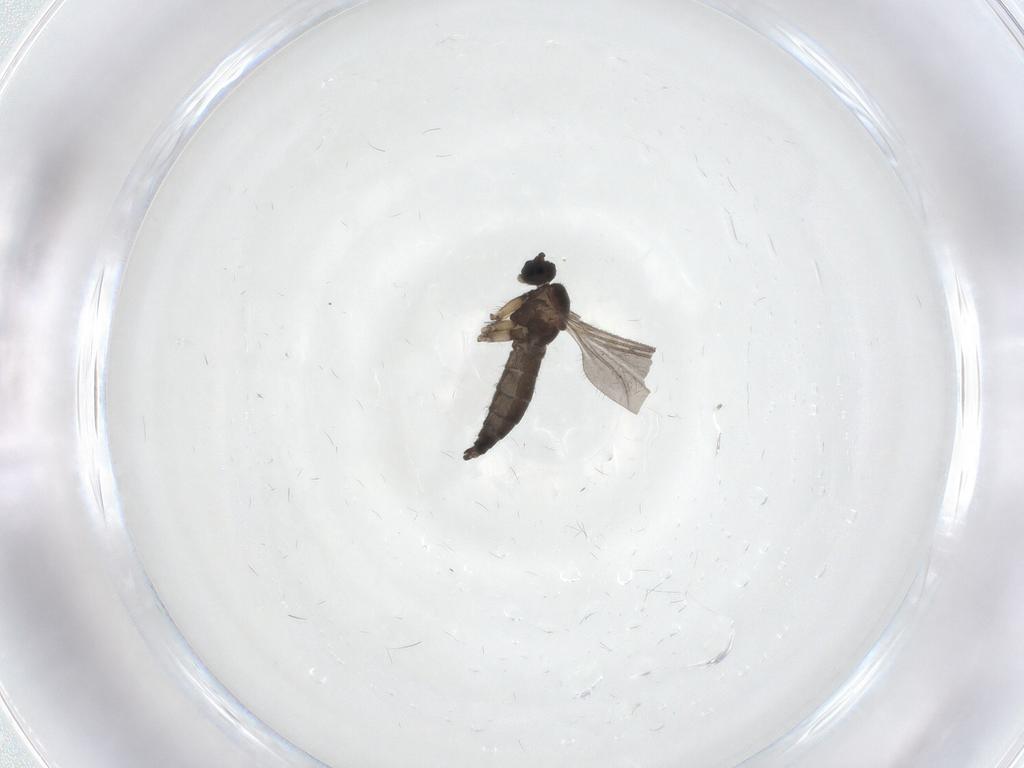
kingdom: Animalia
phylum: Arthropoda
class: Insecta
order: Diptera
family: Sciaridae
